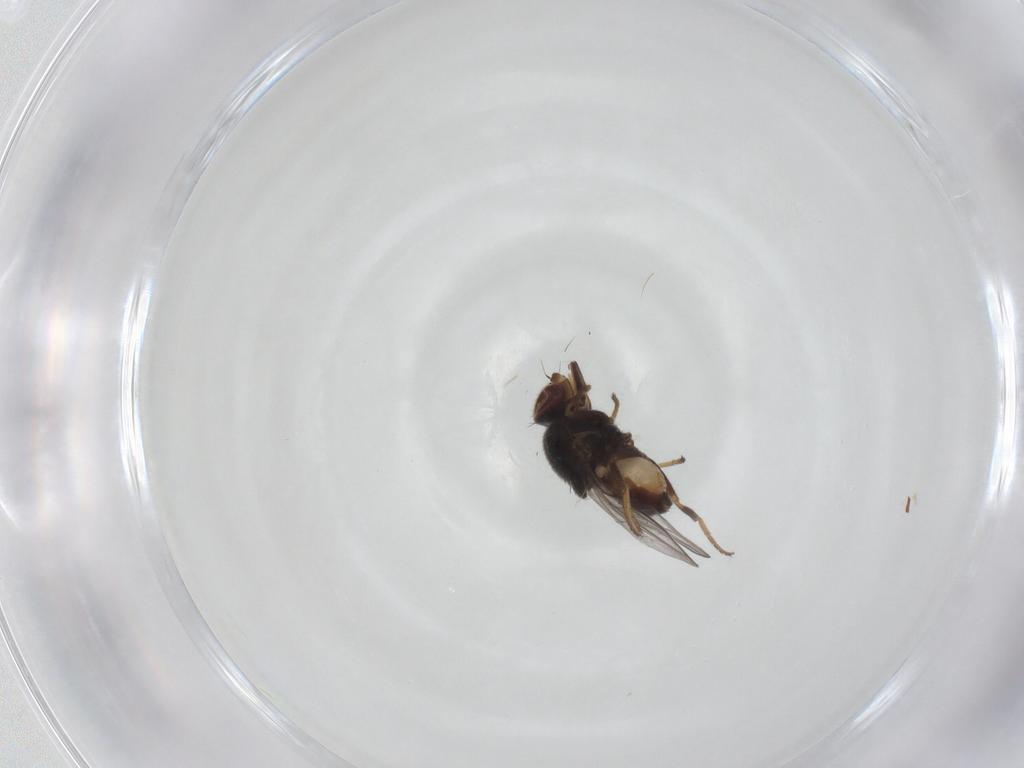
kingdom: Animalia
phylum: Arthropoda
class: Insecta
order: Diptera
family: Chloropidae
